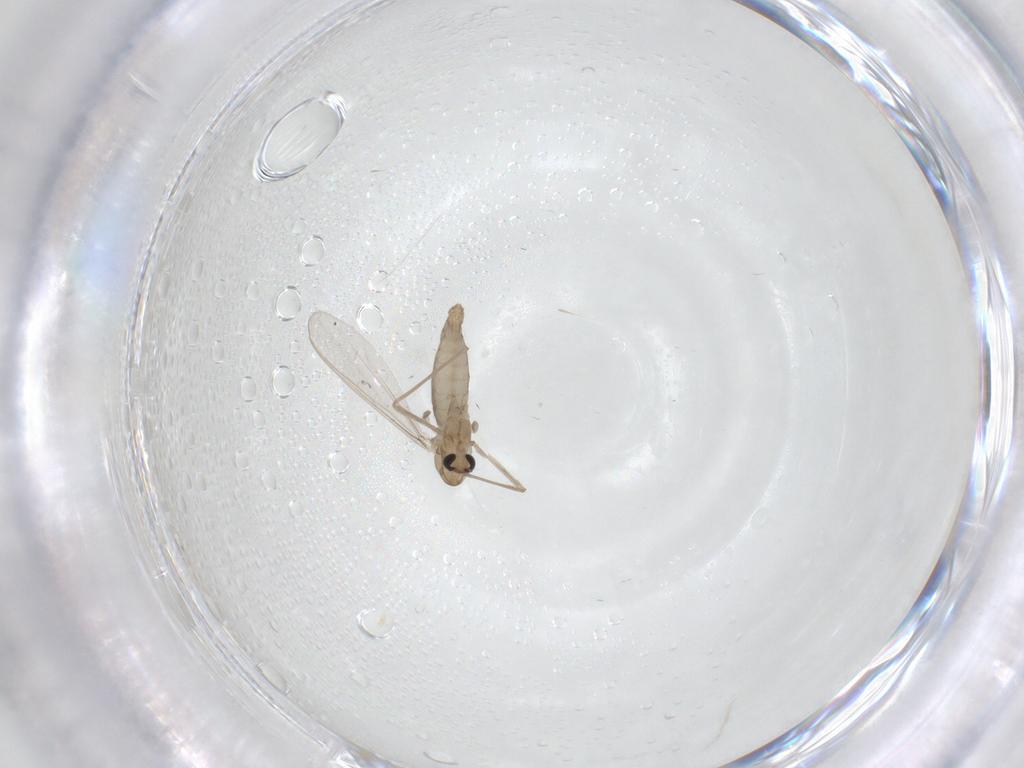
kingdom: Animalia
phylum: Arthropoda
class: Insecta
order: Diptera
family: Chironomidae
